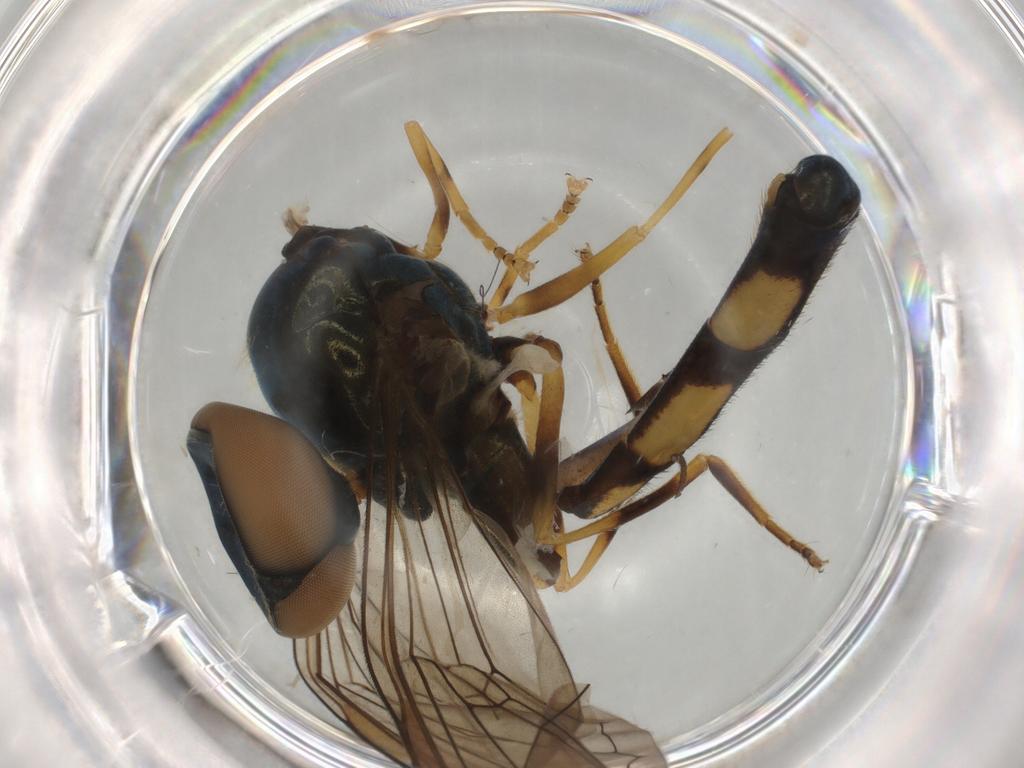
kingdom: Animalia
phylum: Arthropoda
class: Insecta
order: Diptera
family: Syrphidae
